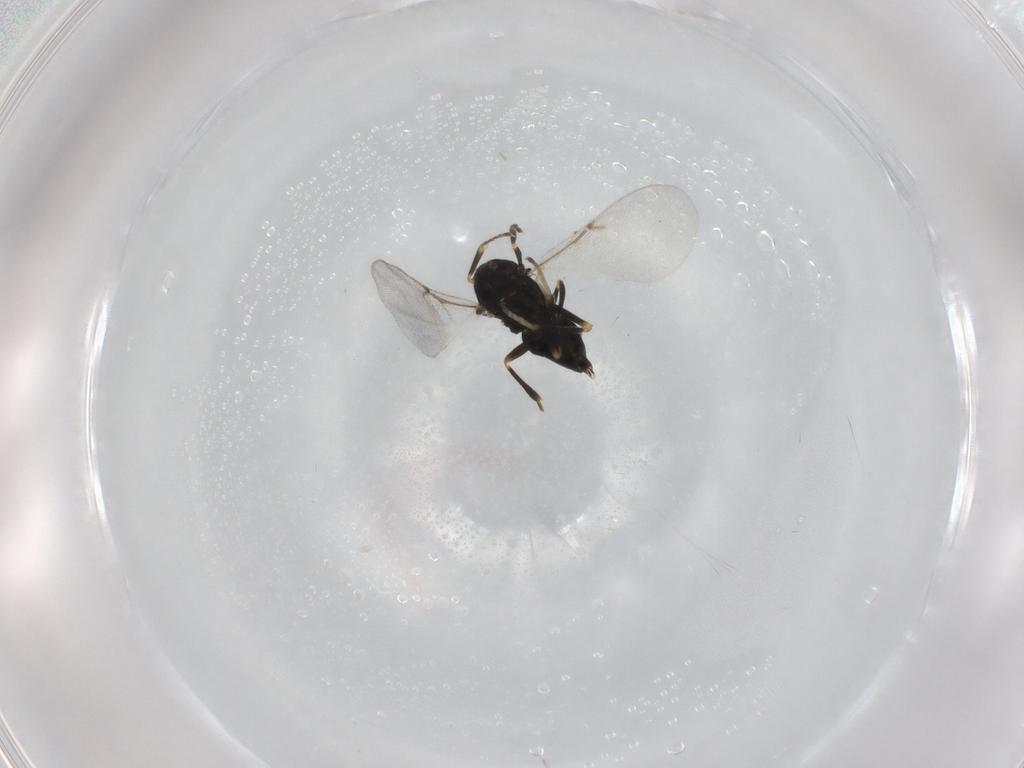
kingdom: Animalia
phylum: Arthropoda
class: Insecta
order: Hymenoptera
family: Encyrtidae
